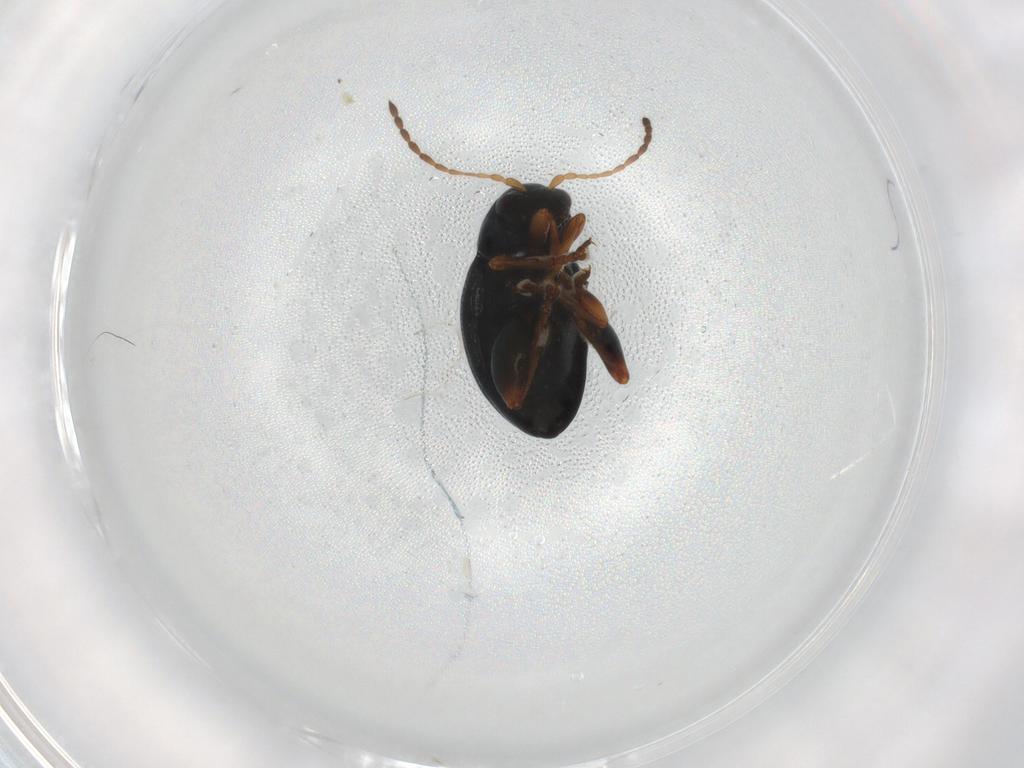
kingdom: Animalia
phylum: Arthropoda
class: Insecta
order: Coleoptera
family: Chrysomelidae
